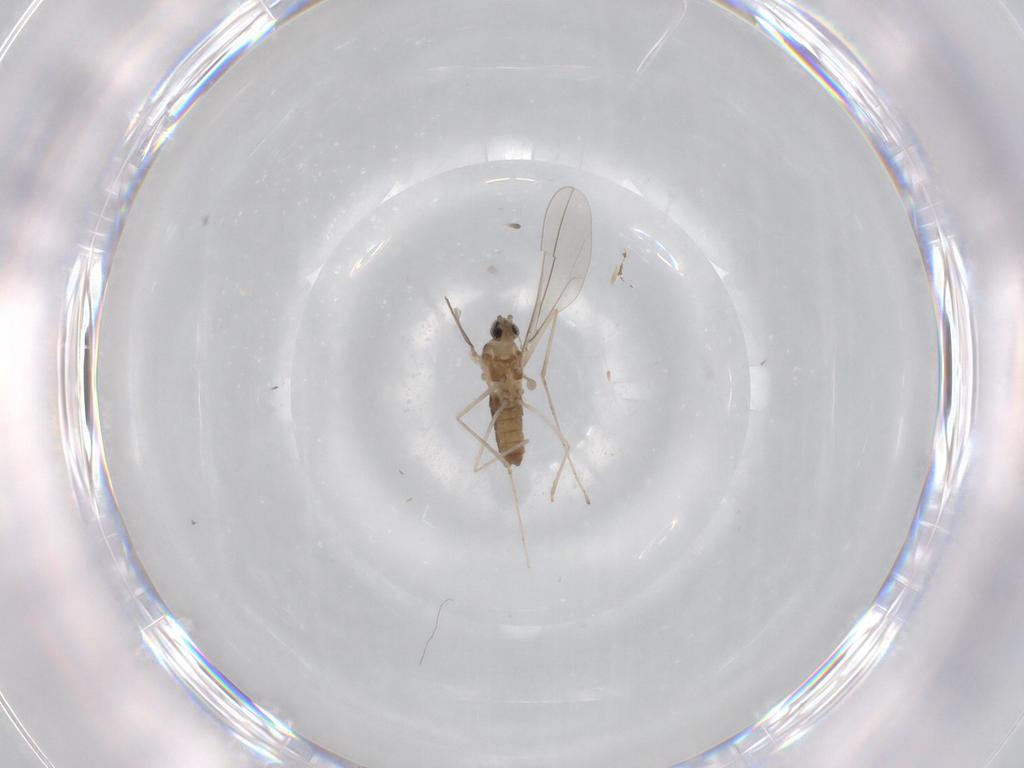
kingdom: Animalia
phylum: Arthropoda
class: Insecta
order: Diptera
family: Cecidomyiidae
